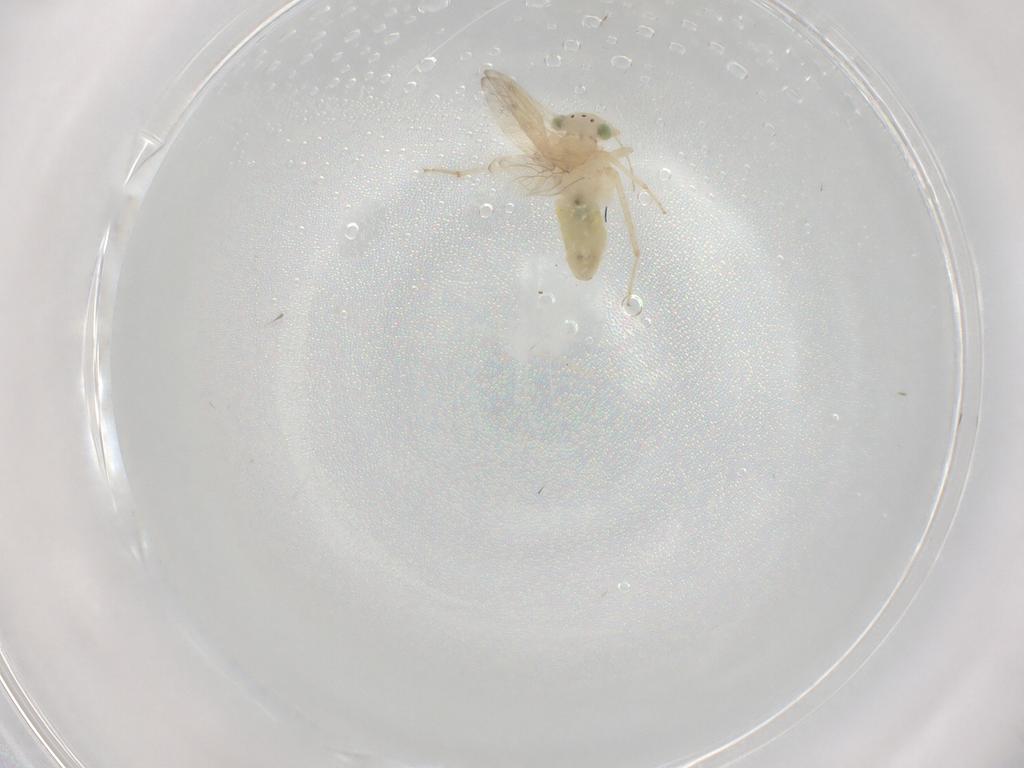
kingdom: Animalia
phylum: Arthropoda
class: Insecta
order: Psocodea
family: Lepidopsocidae
